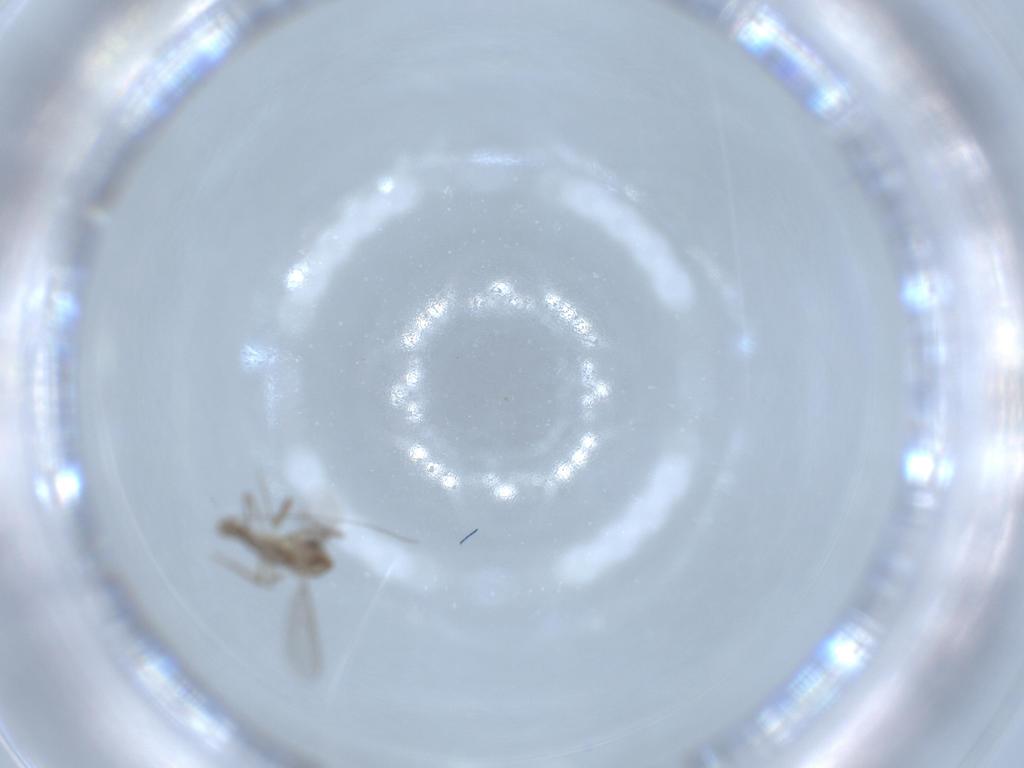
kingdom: Animalia
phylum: Arthropoda
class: Insecta
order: Diptera
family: Chironomidae
